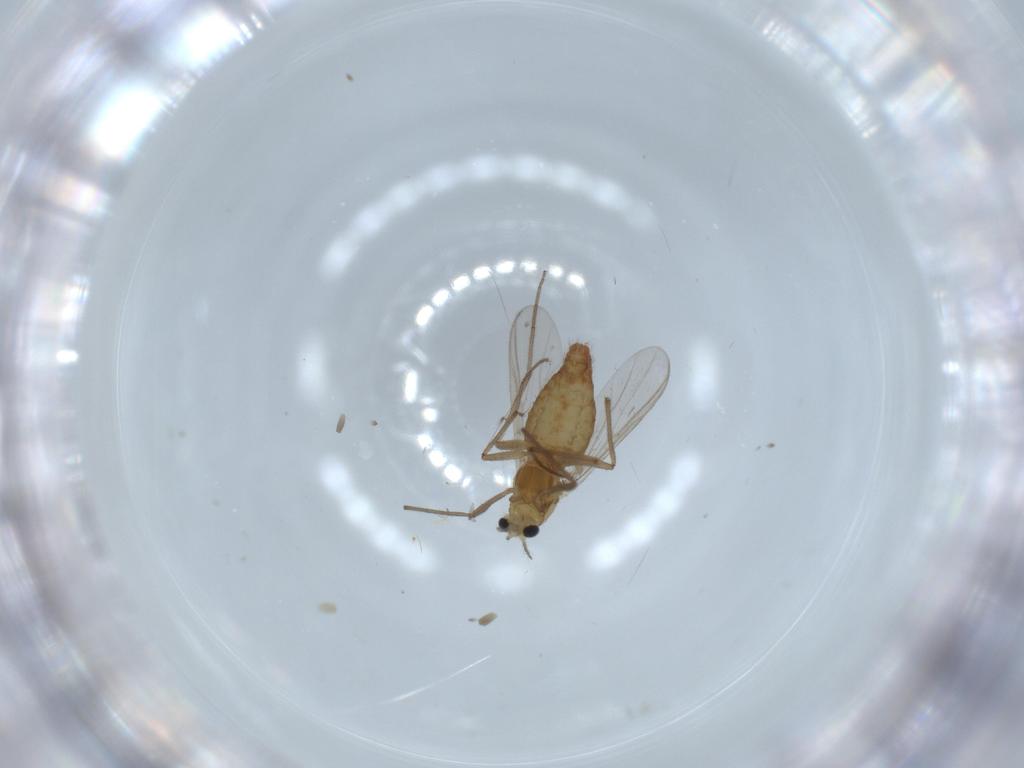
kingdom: Animalia
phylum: Arthropoda
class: Insecta
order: Diptera
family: Chironomidae
